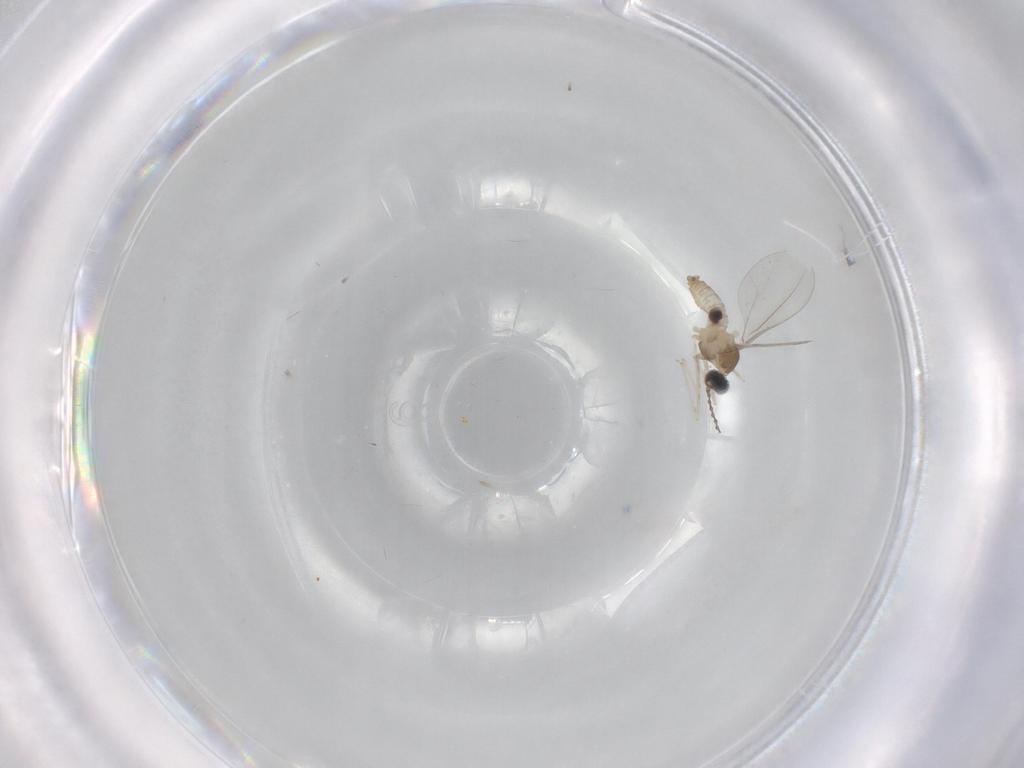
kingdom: Animalia
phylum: Arthropoda
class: Insecta
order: Diptera
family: Cecidomyiidae
